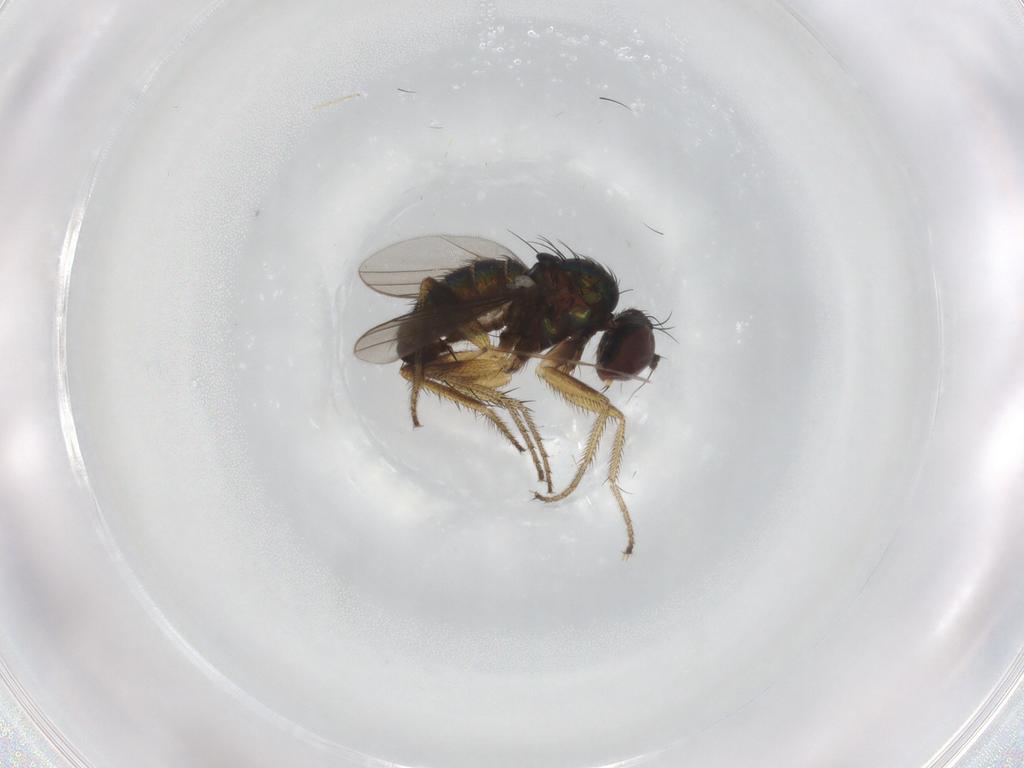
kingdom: Animalia
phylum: Arthropoda
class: Insecta
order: Diptera
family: Dolichopodidae
